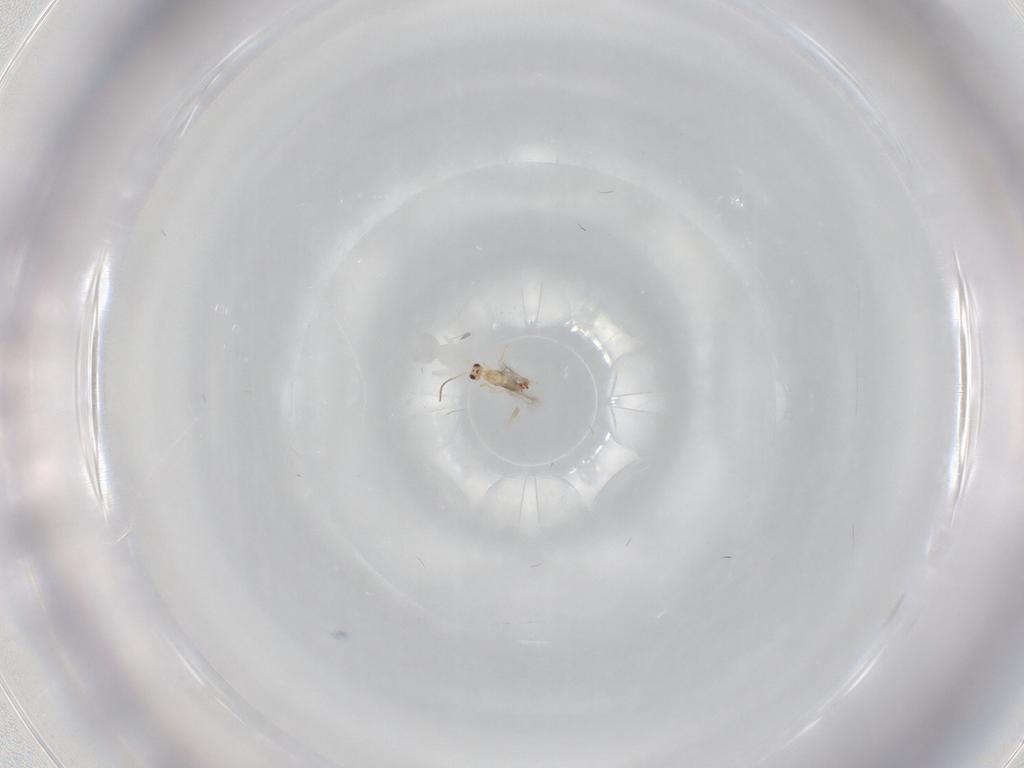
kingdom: Animalia
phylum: Arthropoda
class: Insecta
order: Hymenoptera
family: Mymaridae
